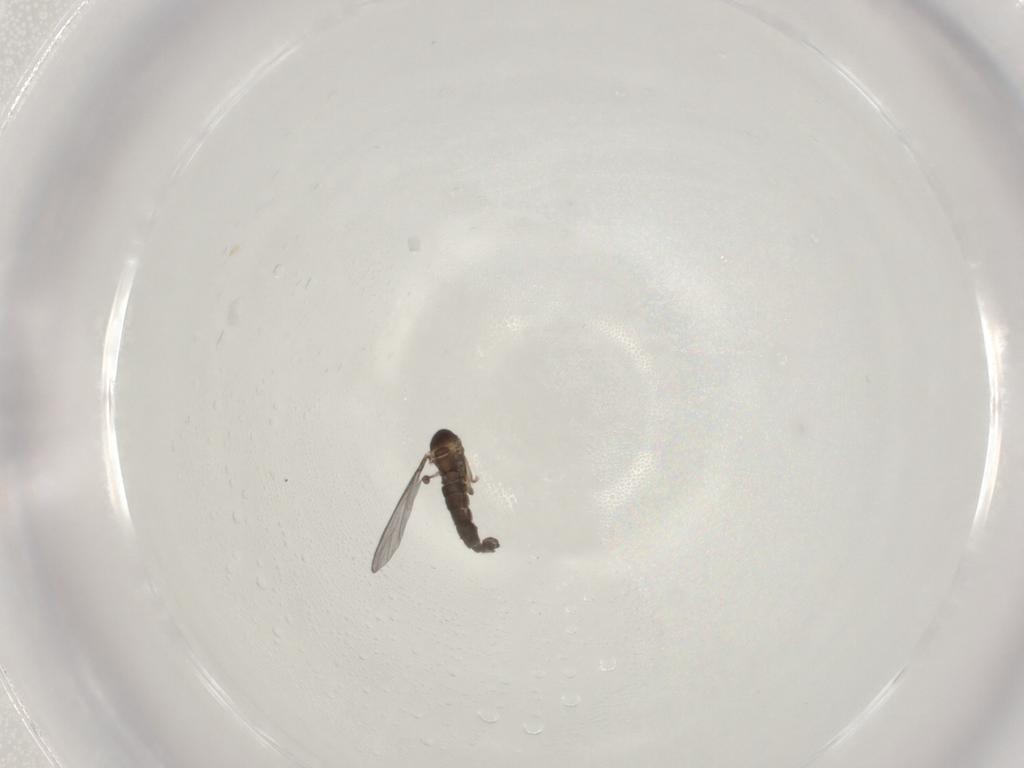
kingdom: Animalia
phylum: Arthropoda
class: Insecta
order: Diptera
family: Sciaridae
